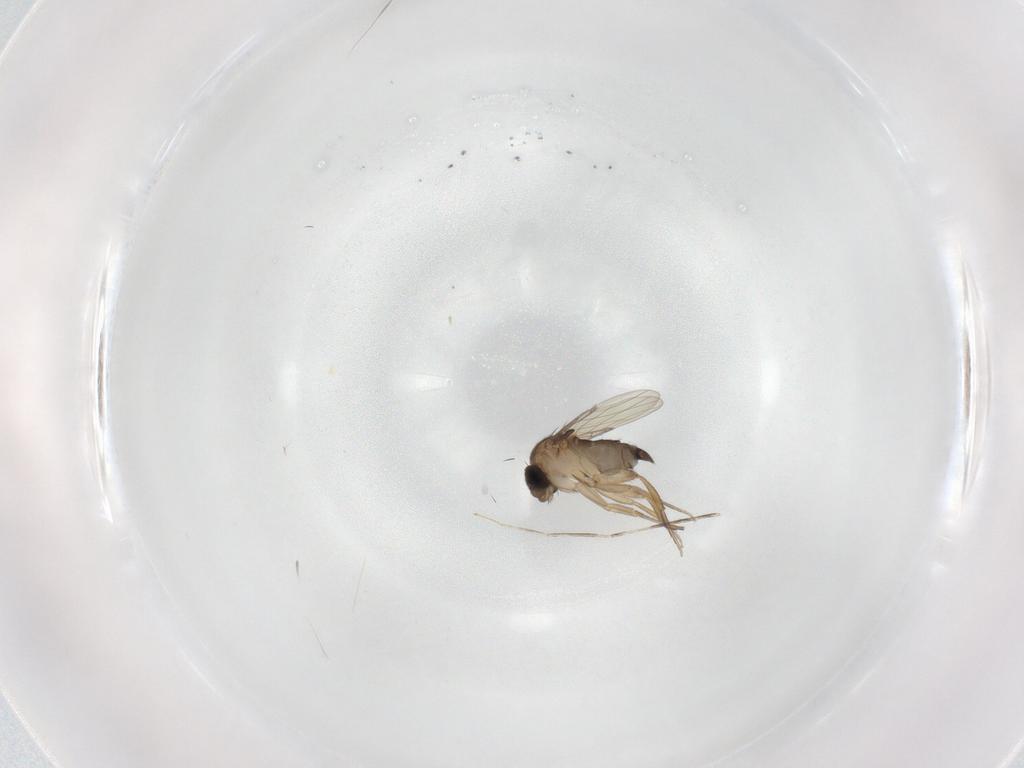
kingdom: Animalia
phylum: Arthropoda
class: Insecta
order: Diptera
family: Phoridae
